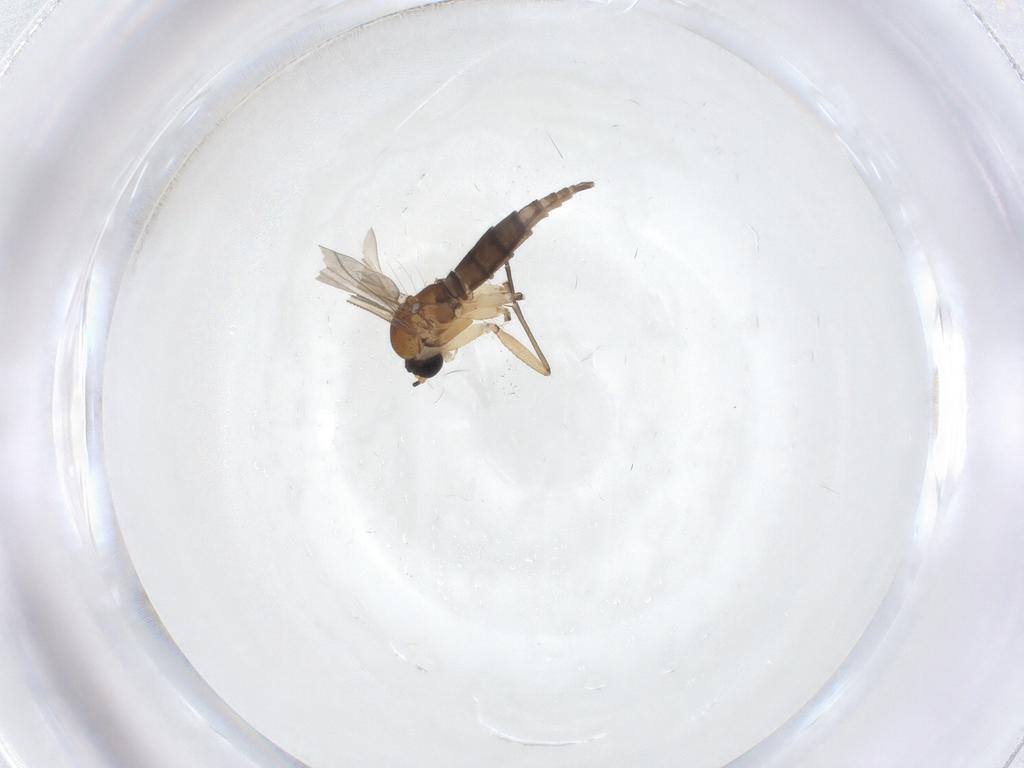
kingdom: Animalia
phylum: Arthropoda
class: Insecta
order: Diptera
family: Sciaridae
